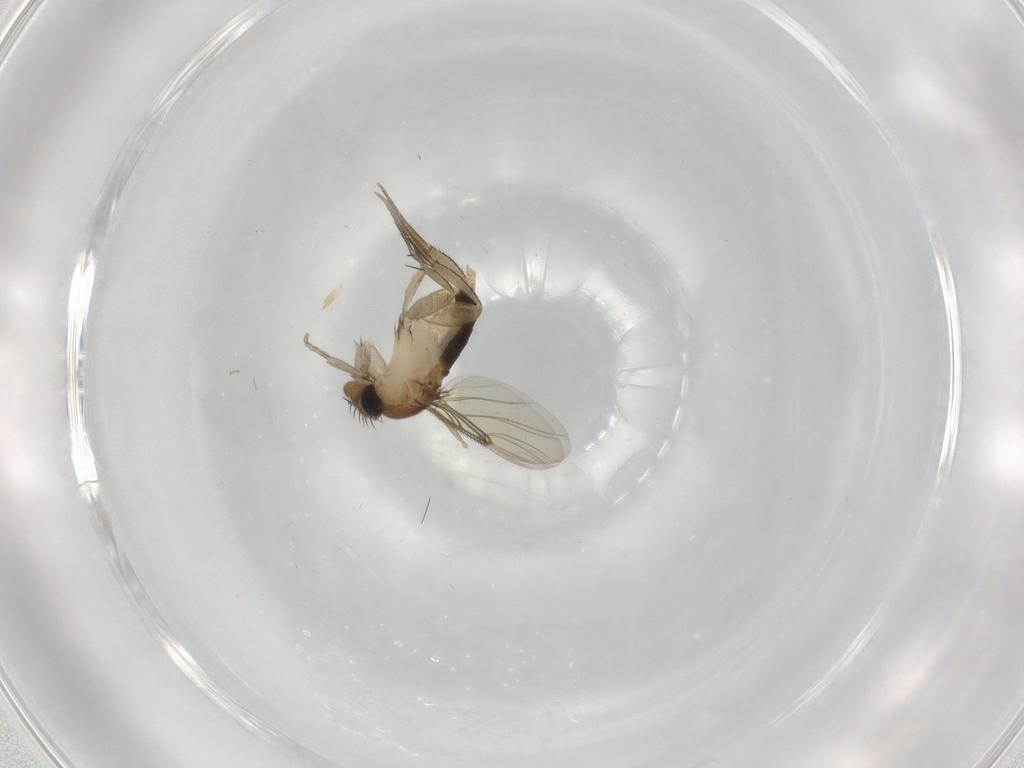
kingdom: Animalia
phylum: Arthropoda
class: Insecta
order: Diptera
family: Phoridae
